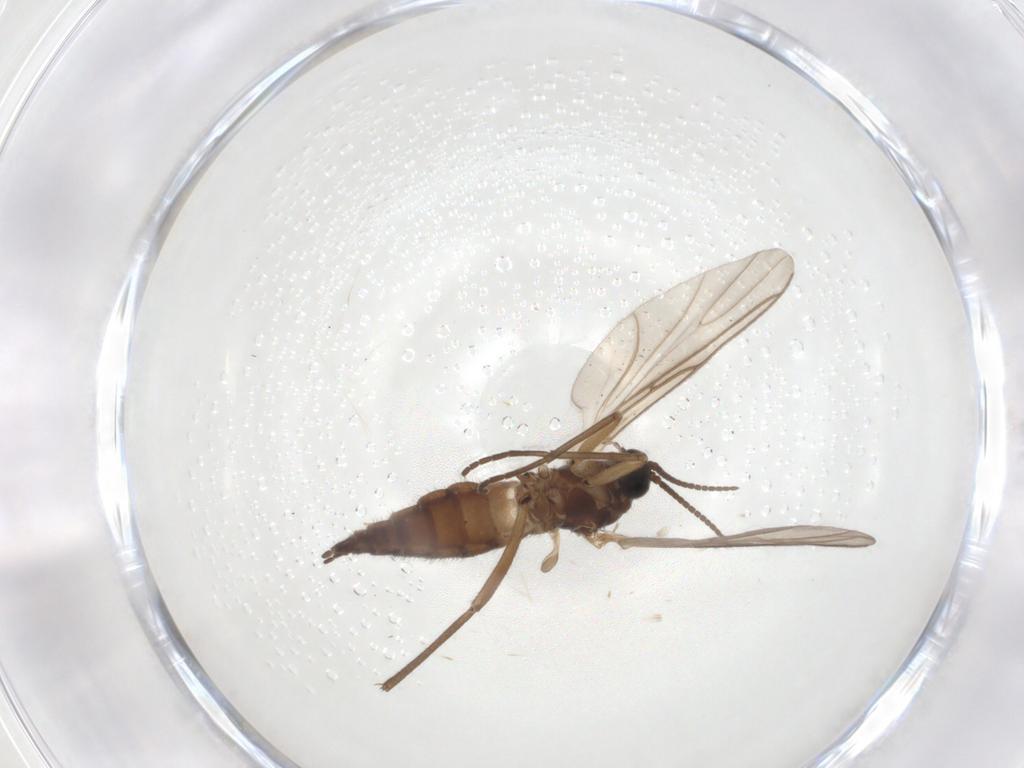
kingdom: Animalia
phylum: Arthropoda
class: Insecta
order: Diptera
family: Sciaridae
